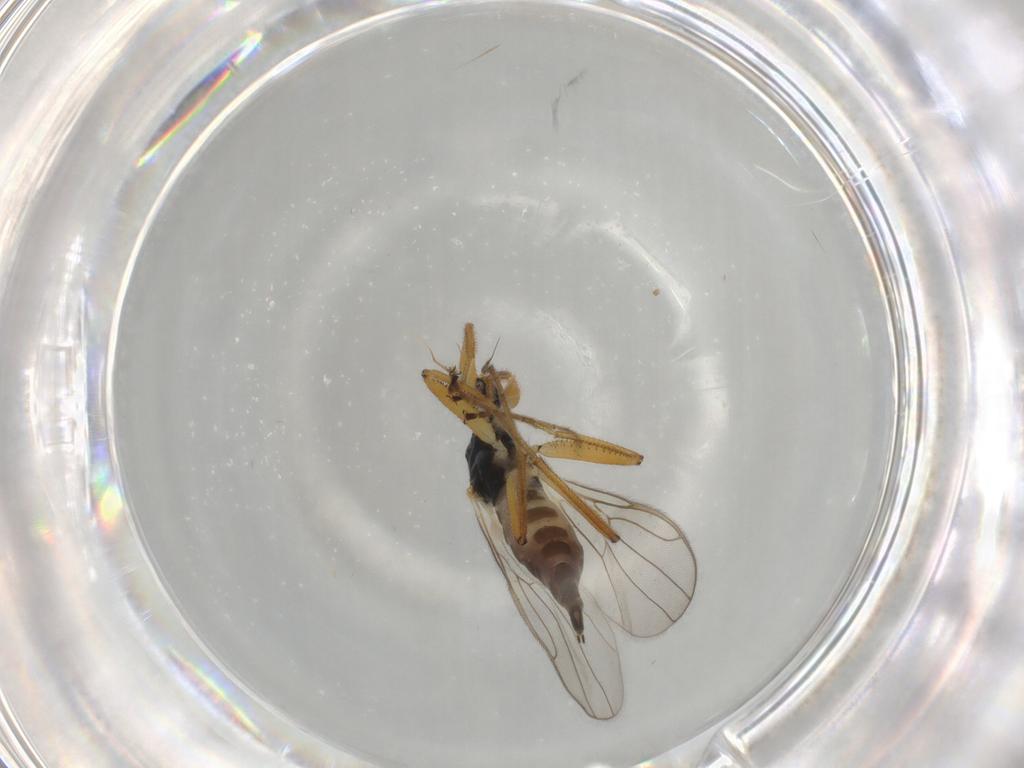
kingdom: Animalia
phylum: Arthropoda
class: Insecta
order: Diptera
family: Hybotidae
